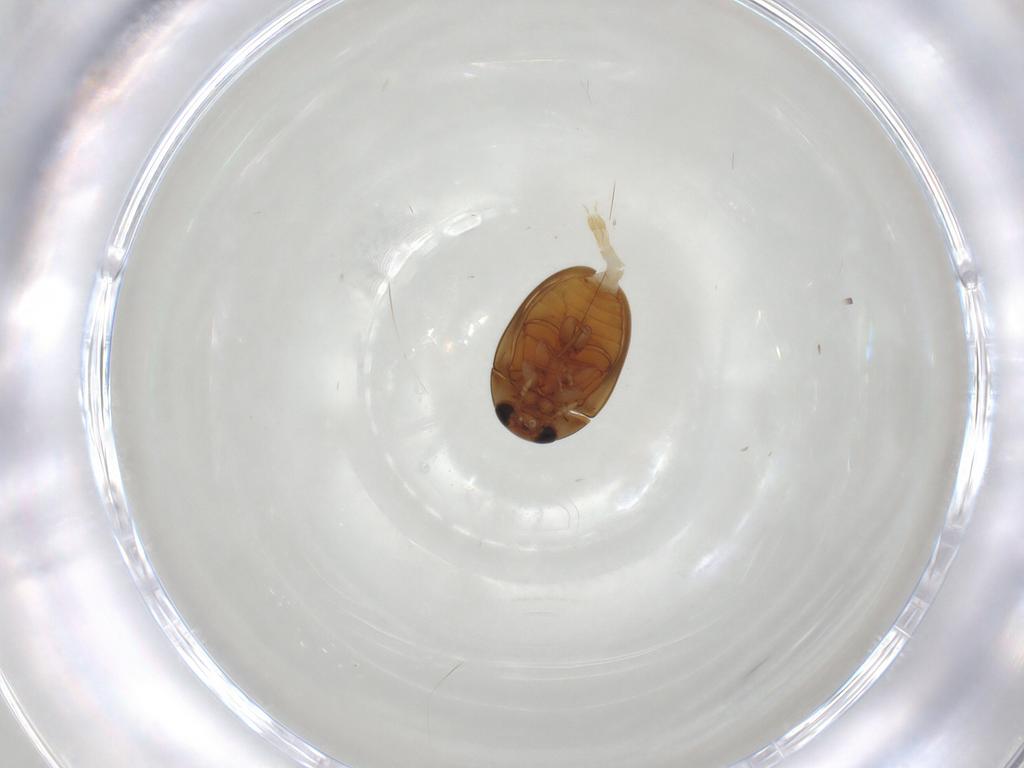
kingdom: Animalia
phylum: Arthropoda
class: Insecta
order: Coleoptera
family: Phalacridae
